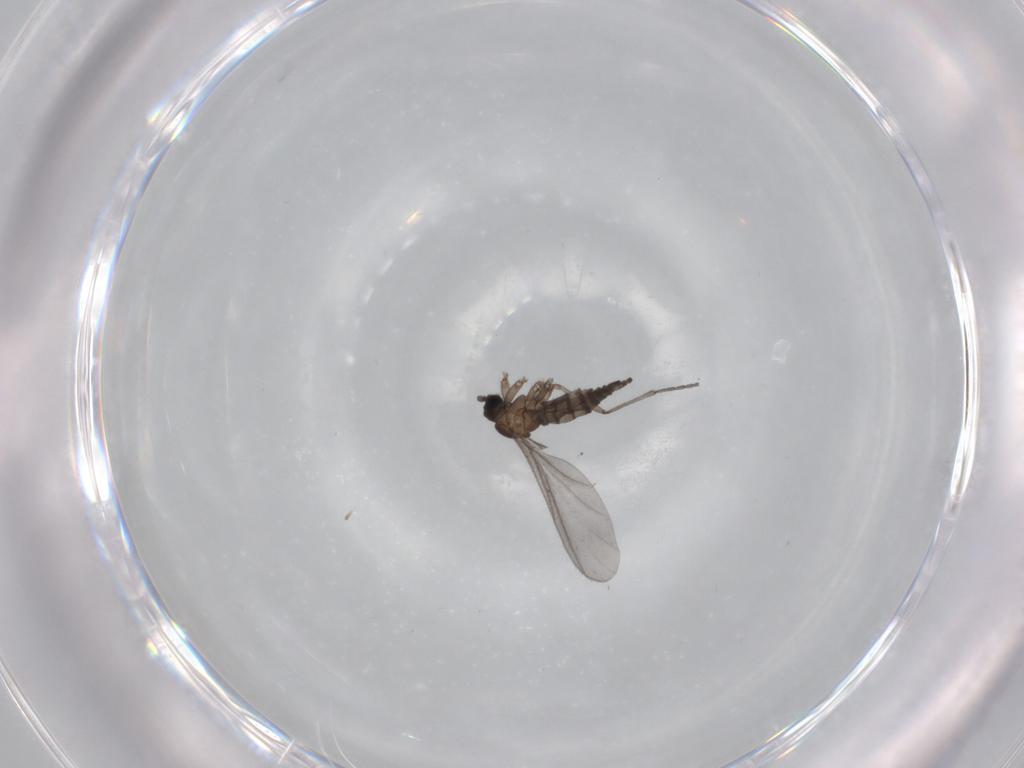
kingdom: Animalia
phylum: Arthropoda
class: Insecta
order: Diptera
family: Sciaridae
